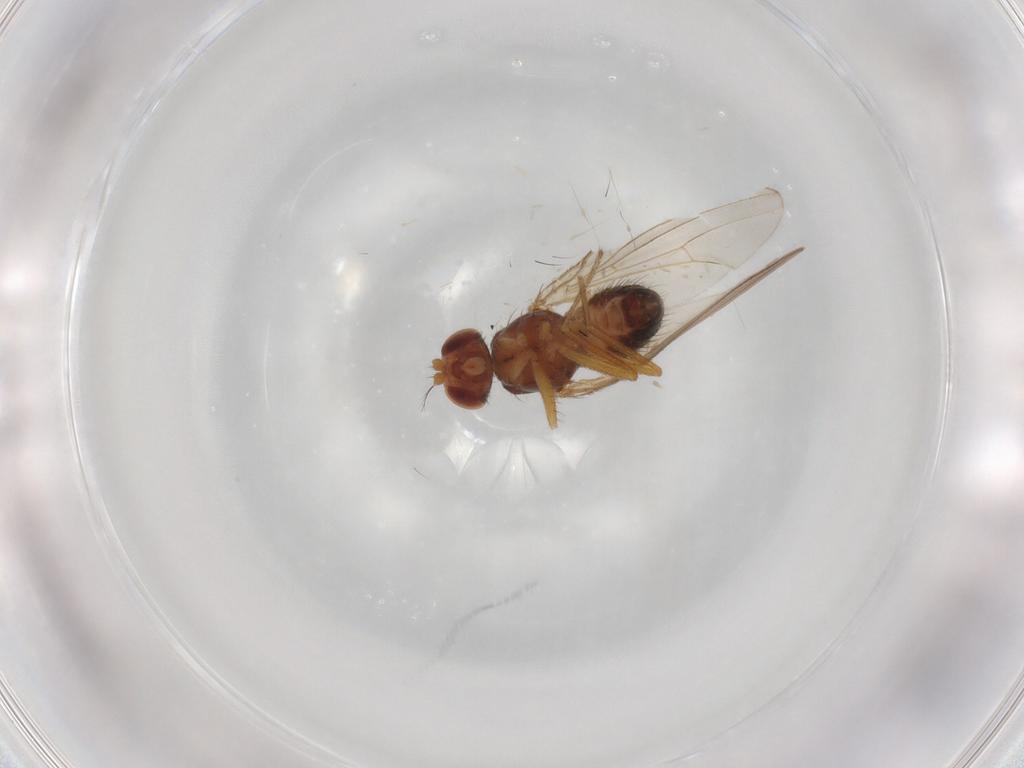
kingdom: Animalia
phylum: Arthropoda
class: Insecta
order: Diptera
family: Drosophilidae
